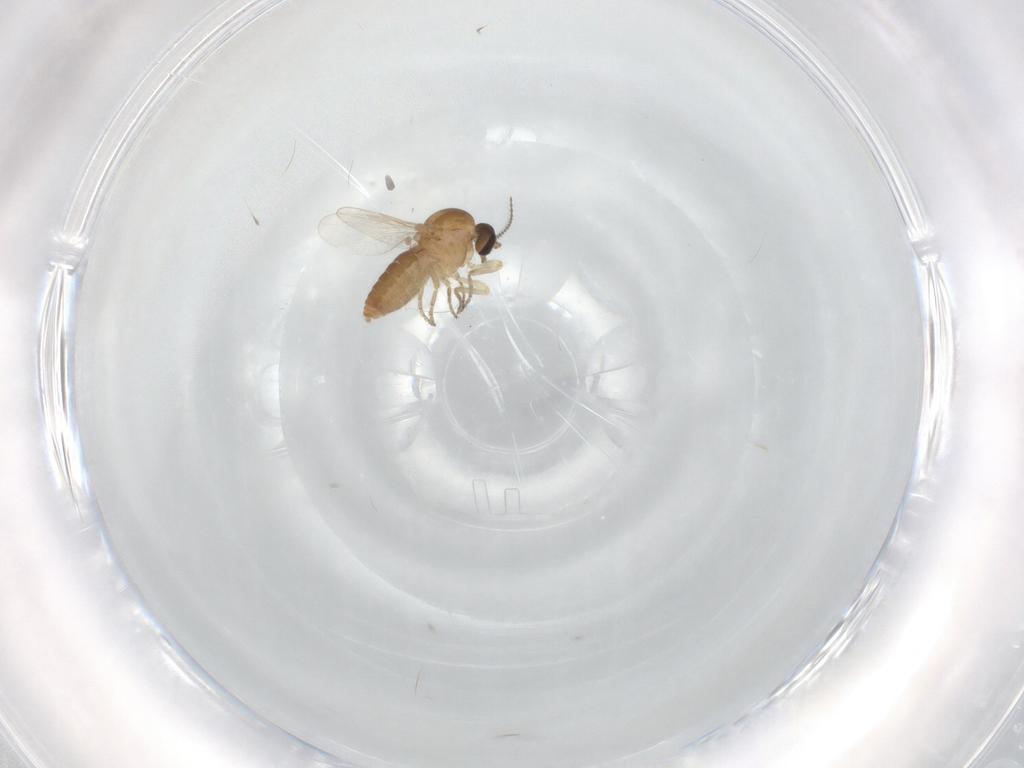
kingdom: Animalia
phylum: Arthropoda
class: Insecta
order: Diptera
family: Ceratopogonidae
